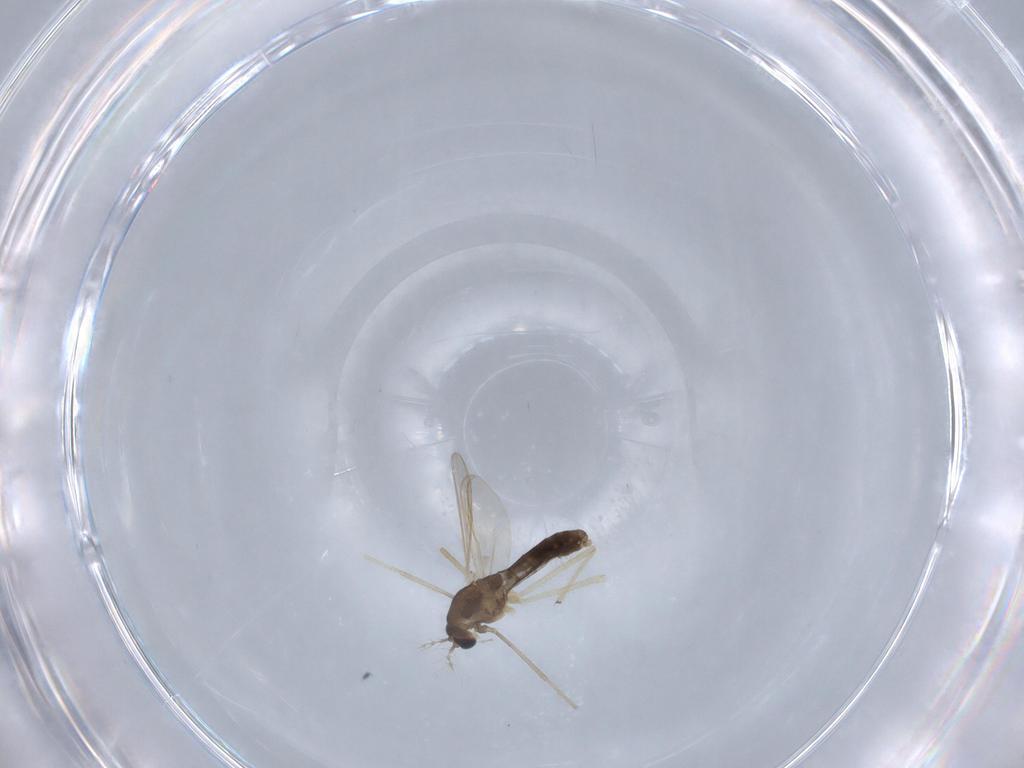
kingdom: Animalia
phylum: Arthropoda
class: Insecta
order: Diptera
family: Chironomidae
